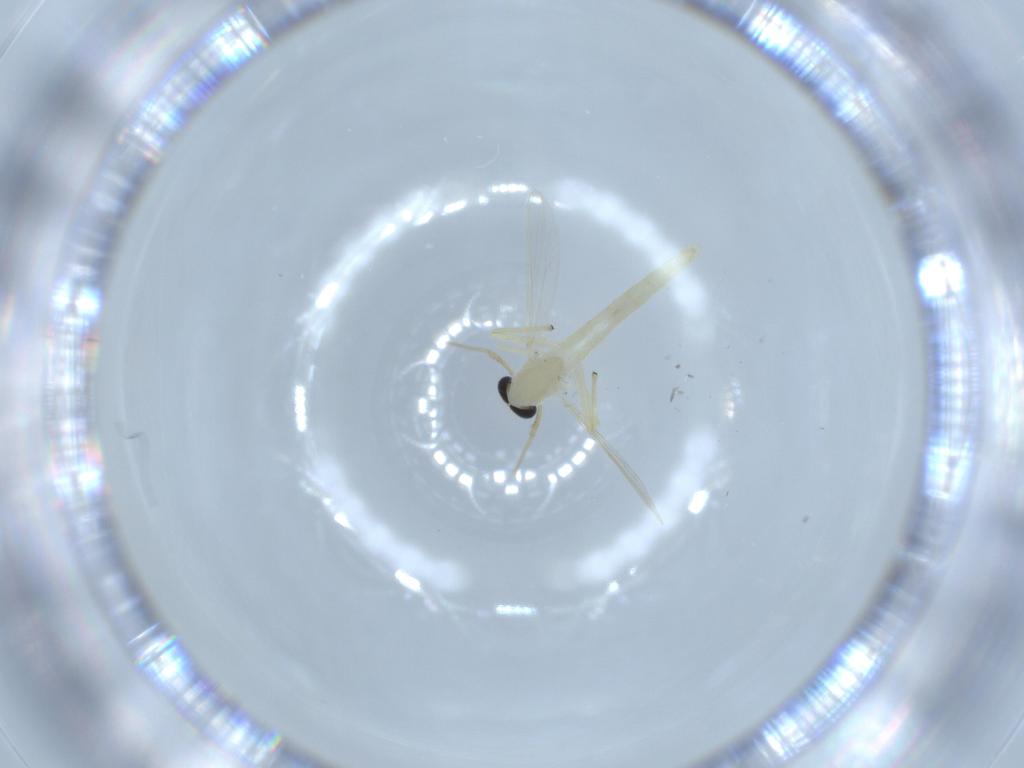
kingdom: Animalia
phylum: Arthropoda
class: Insecta
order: Diptera
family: Chironomidae
